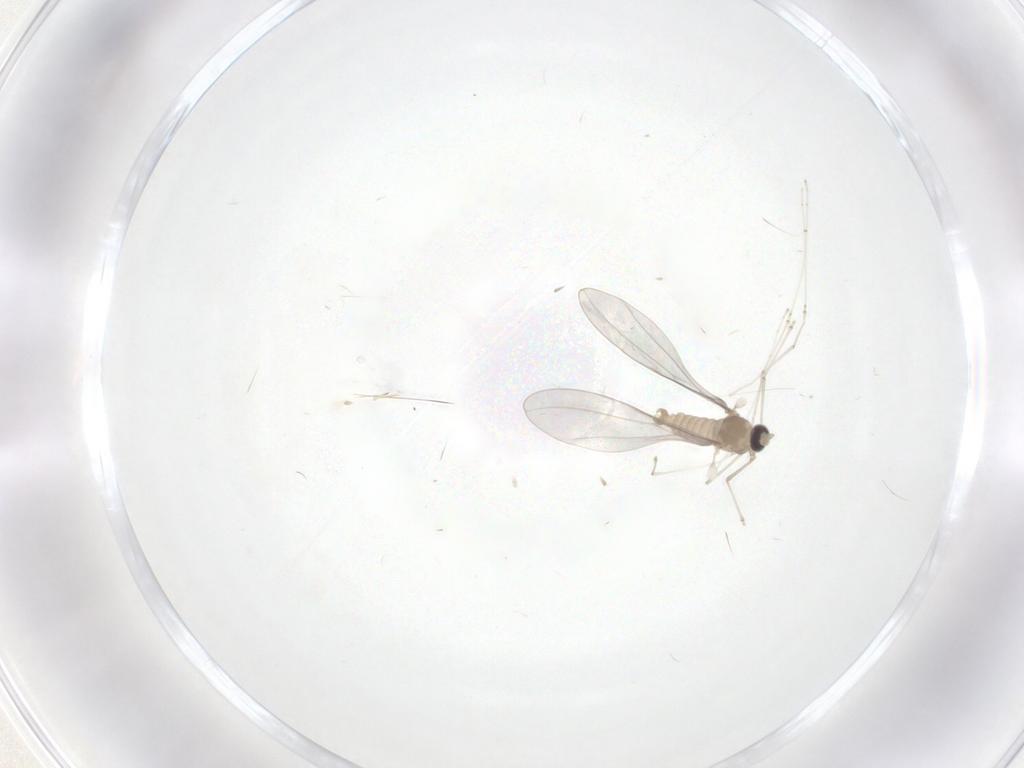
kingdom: Animalia
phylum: Arthropoda
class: Insecta
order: Diptera
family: Cecidomyiidae
